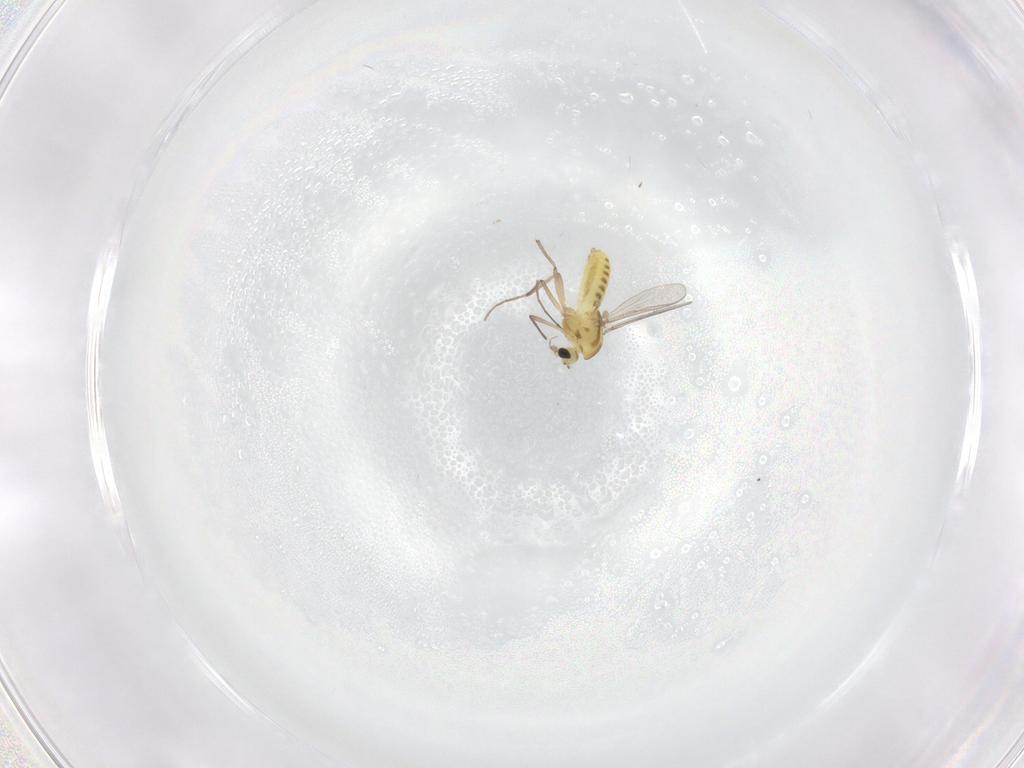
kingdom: Animalia
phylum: Arthropoda
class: Insecta
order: Diptera
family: Chironomidae
